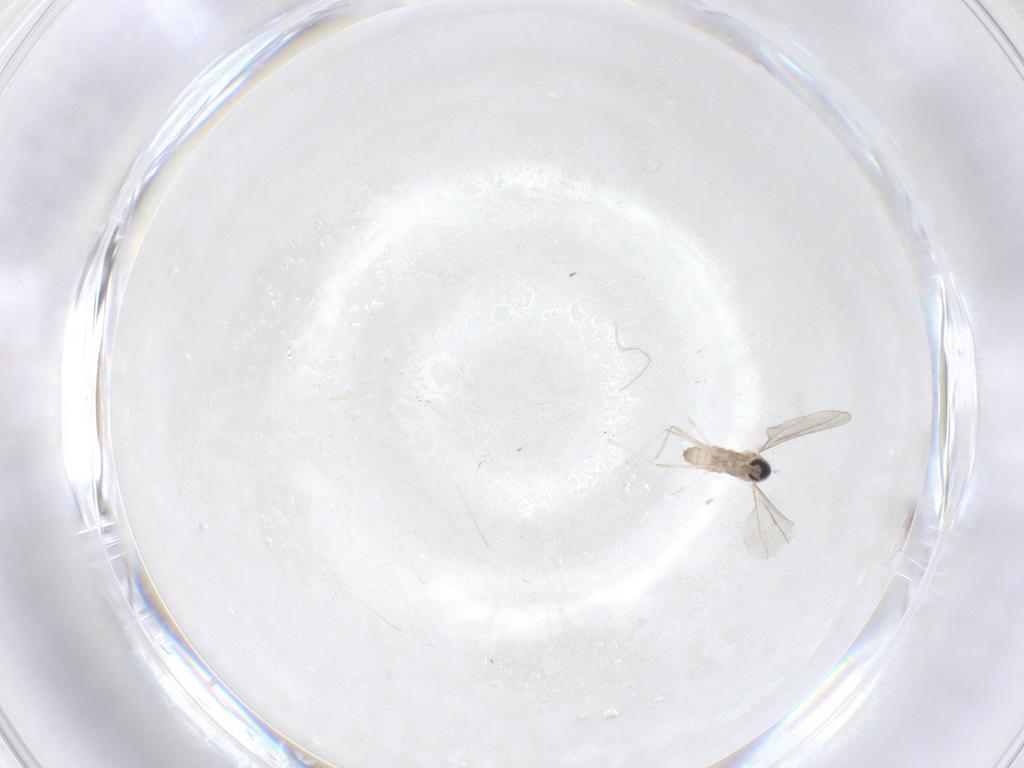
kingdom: Animalia
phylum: Arthropoda
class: Insecta
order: Diptera
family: Cecidomyiidae
